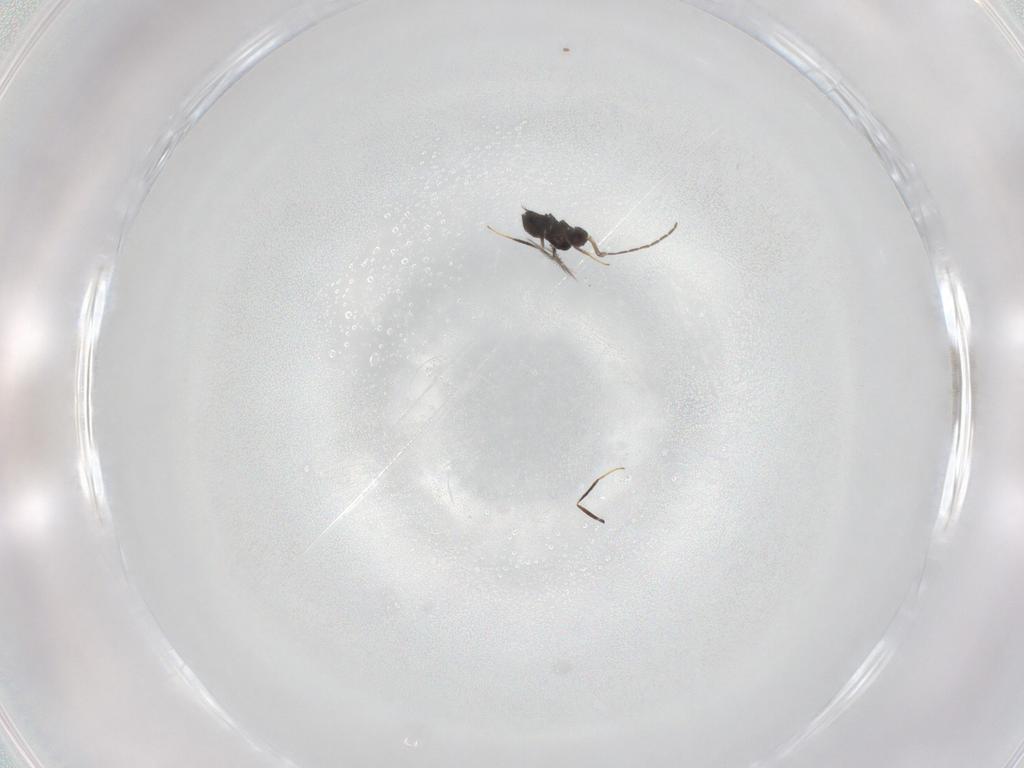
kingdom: Animalia
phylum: Arthropoda
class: Insecta
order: Hymenoptera
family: Mymaridae
